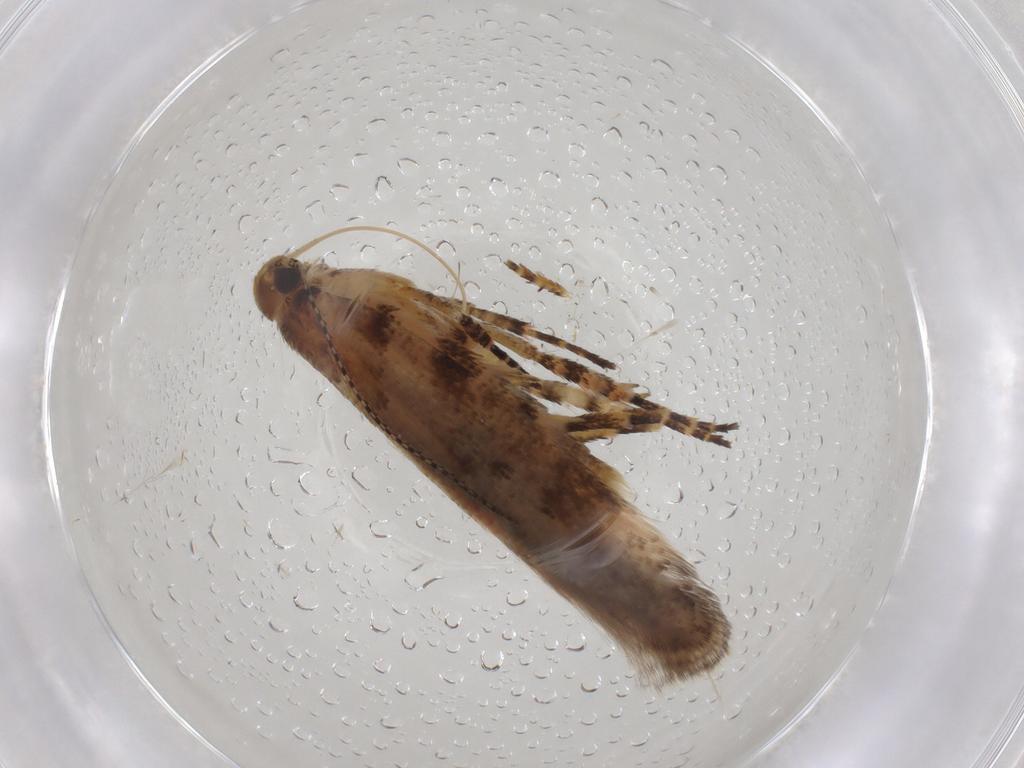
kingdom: Animalia
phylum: Arthropoda
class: Insecta
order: Lepidoptera
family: Gelechiidae
